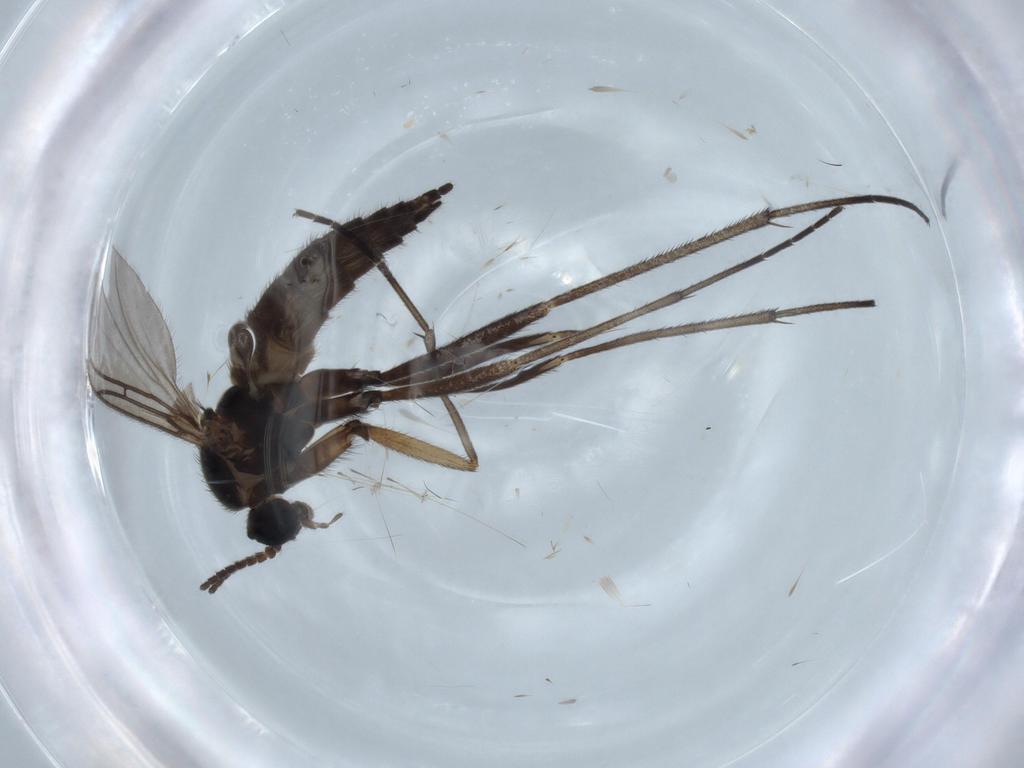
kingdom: Animalia
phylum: Arthropoda
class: Insecta
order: Diptera
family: Sciaridae
